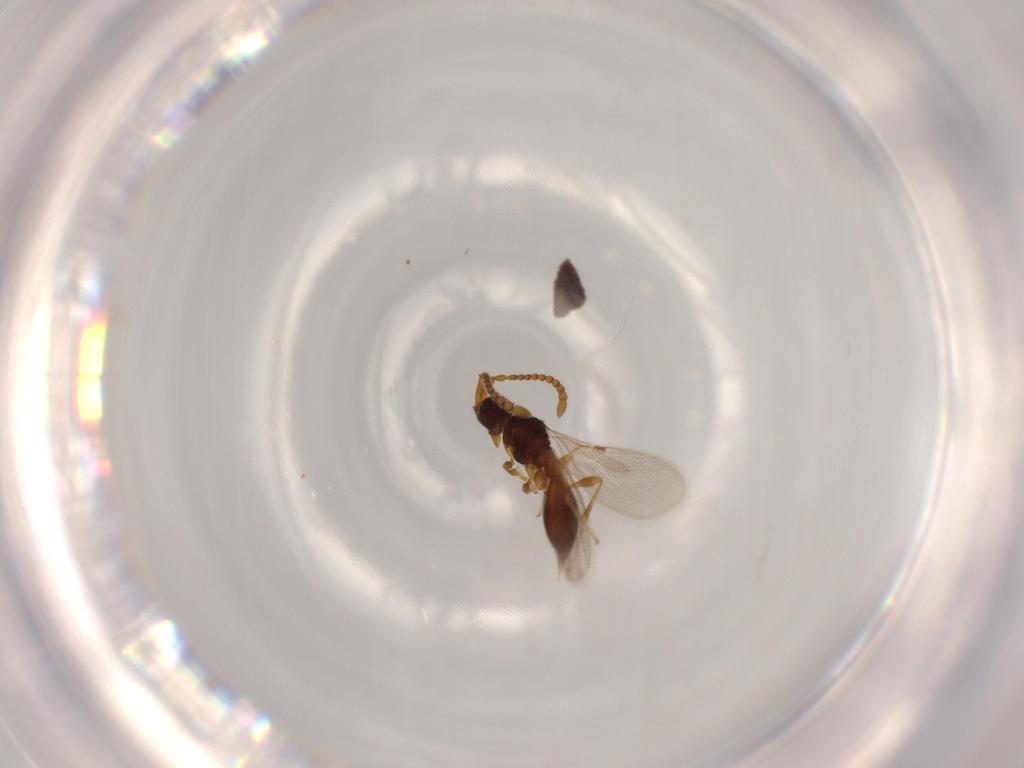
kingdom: Animalia
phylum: Arthropoda
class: Insecta
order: Hymenoptera
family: Diapriidae
